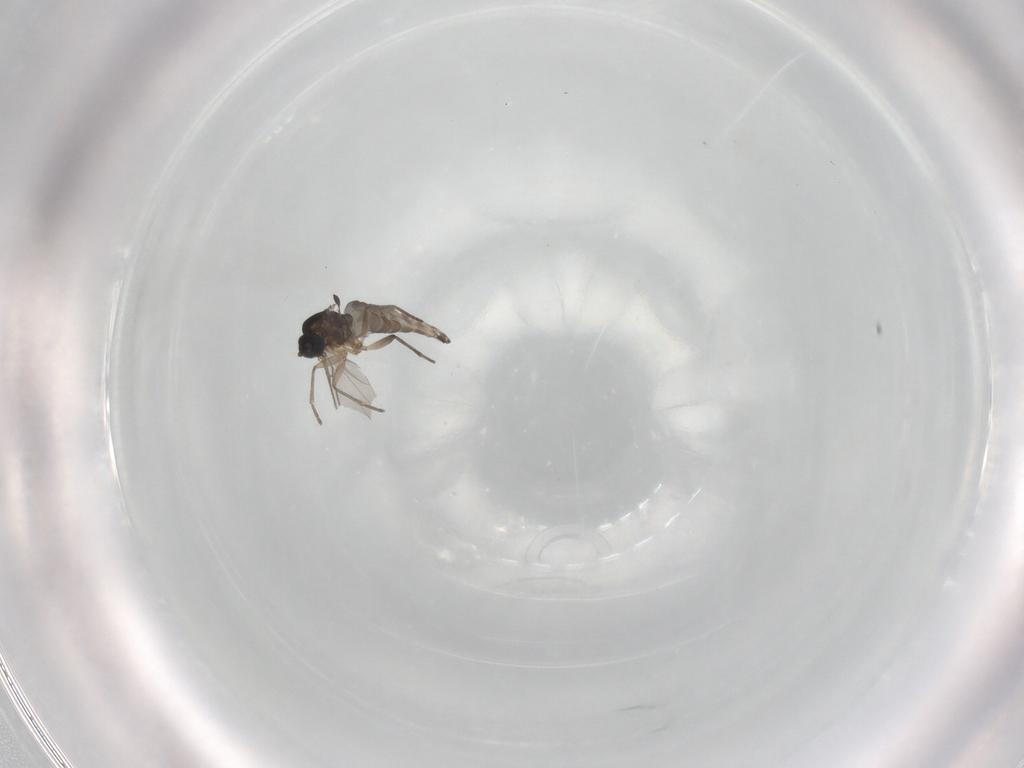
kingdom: Animalia
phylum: Arthropoda
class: Insecta
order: Diptera
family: Sciaridae
